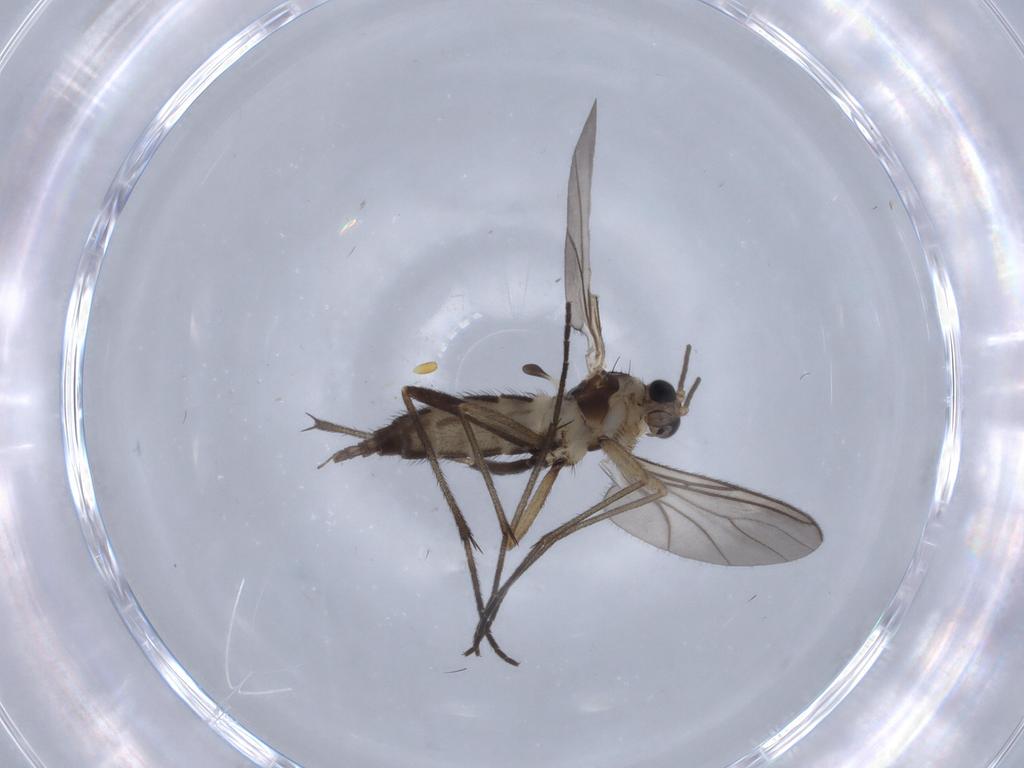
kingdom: Animalia
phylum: Arthropoda
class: Insecta
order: Diptera
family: Sciaridae
